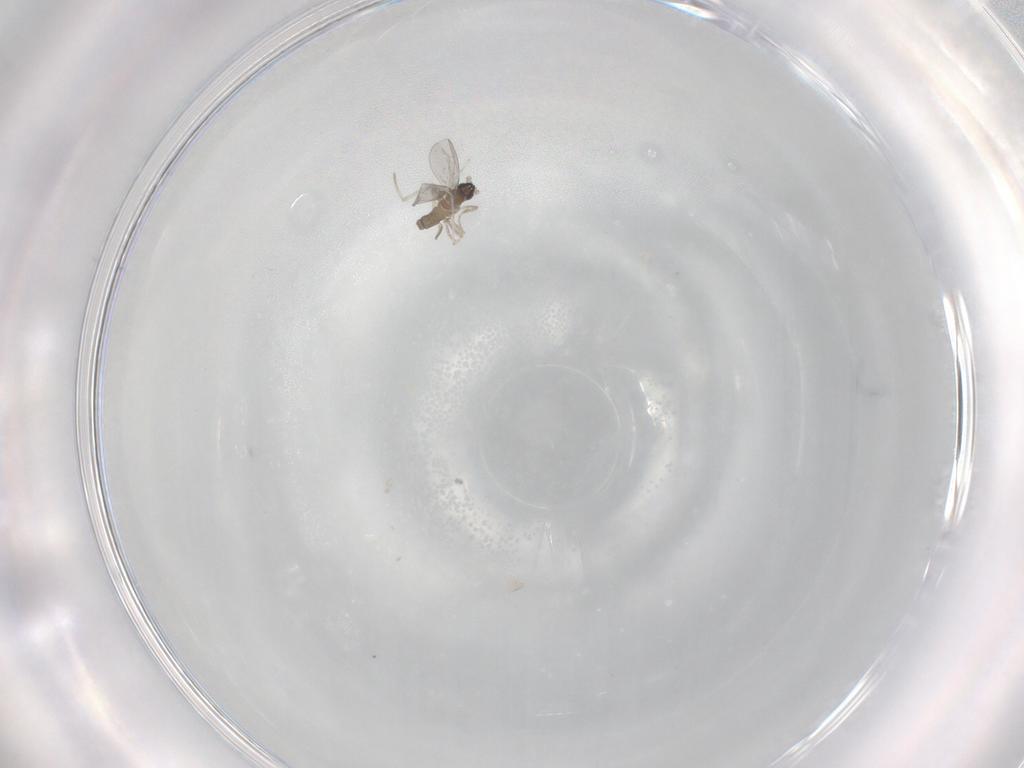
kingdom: Animalia
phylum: Arthropoda
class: Insecta
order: Diptera
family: Cecidomyiidae
